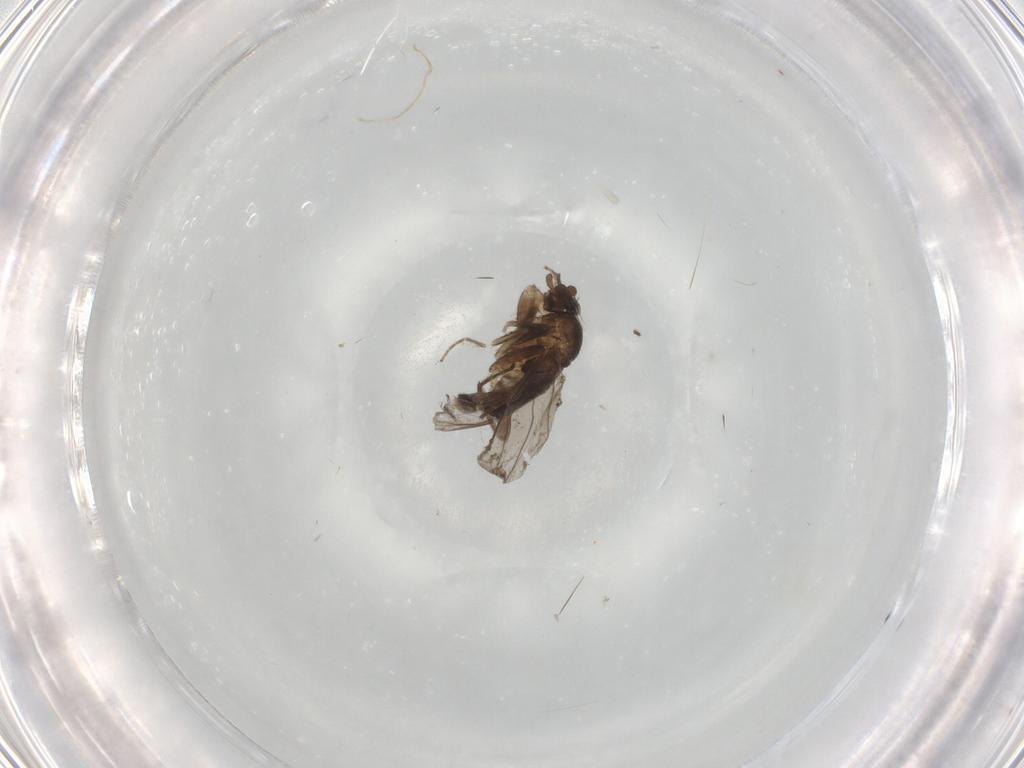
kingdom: Animalia
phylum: Arthropoda
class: Insecta
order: Diptera
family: Cecidomyiidae
